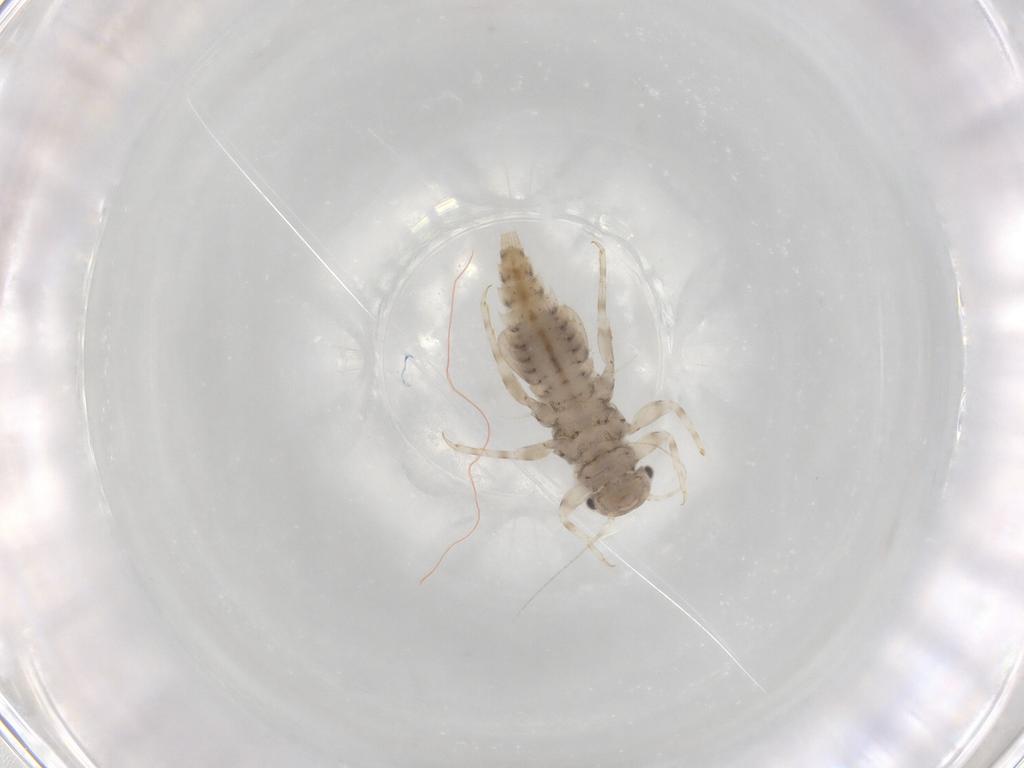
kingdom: Animalia
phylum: Arthropoda
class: Insecta
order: Ephemeroptera
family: Caenidae
